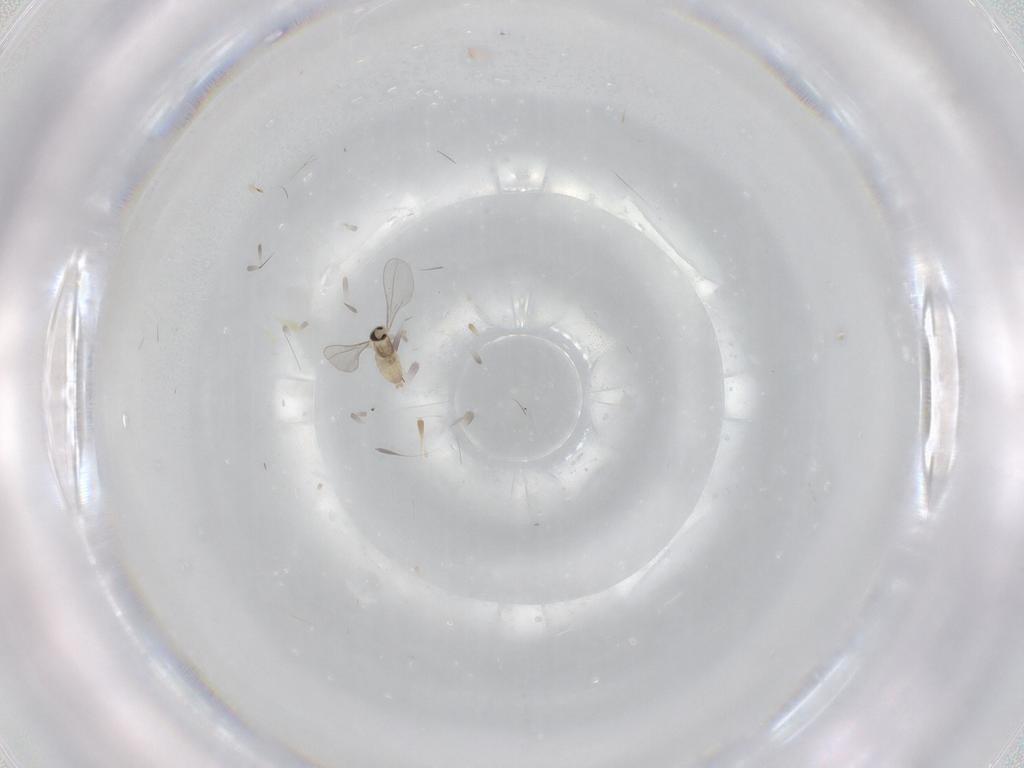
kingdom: Animalia
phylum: Arthropoda
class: Insecta
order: Diptera
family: Cecidomyiidae
